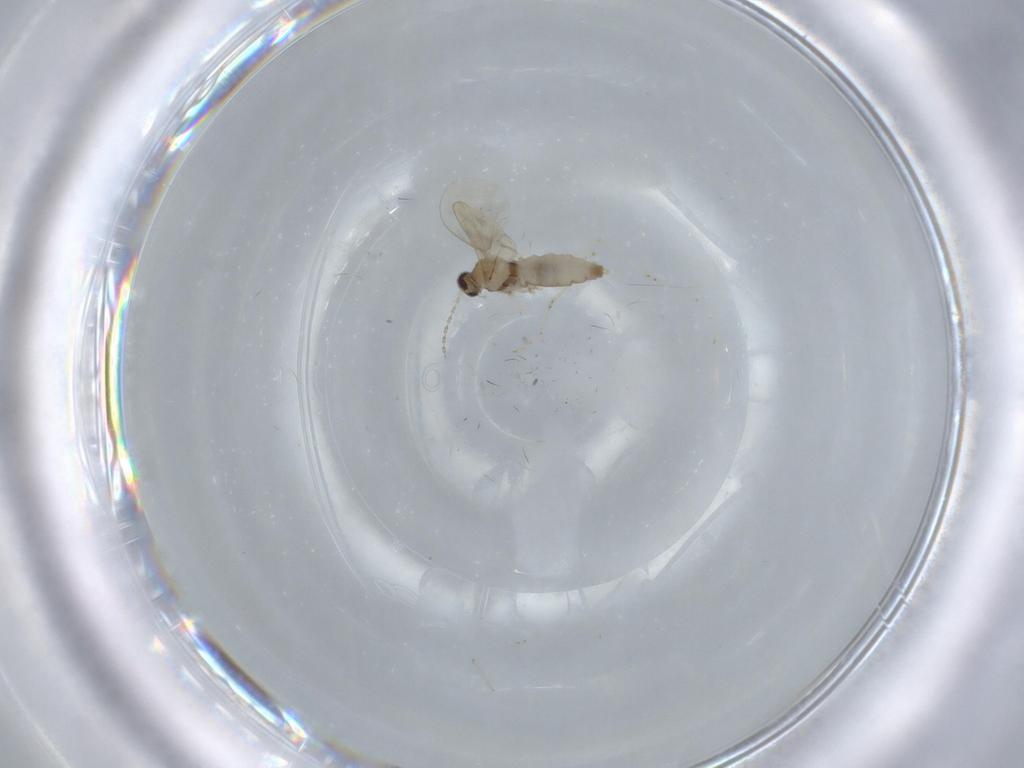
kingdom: Animalia
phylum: Arthropoda
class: Insecta
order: Diptera
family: Cecidomyiidae
